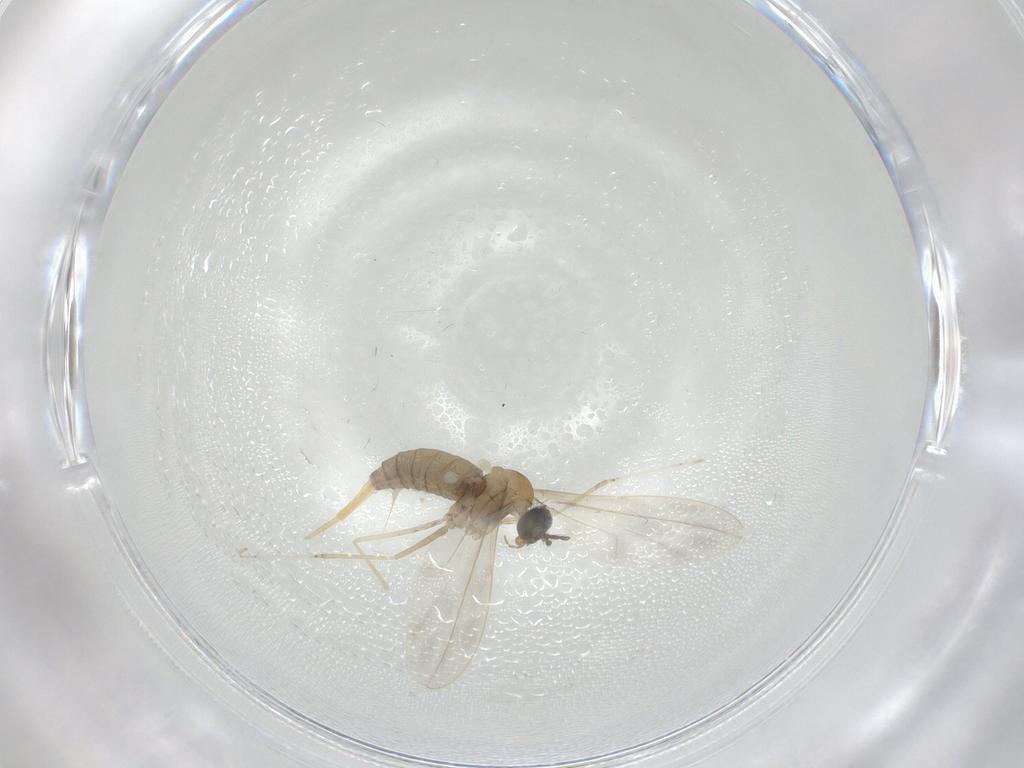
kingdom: Animalia
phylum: Arthropoda
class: Insecta
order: Diptera
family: Cecidomyiidae
